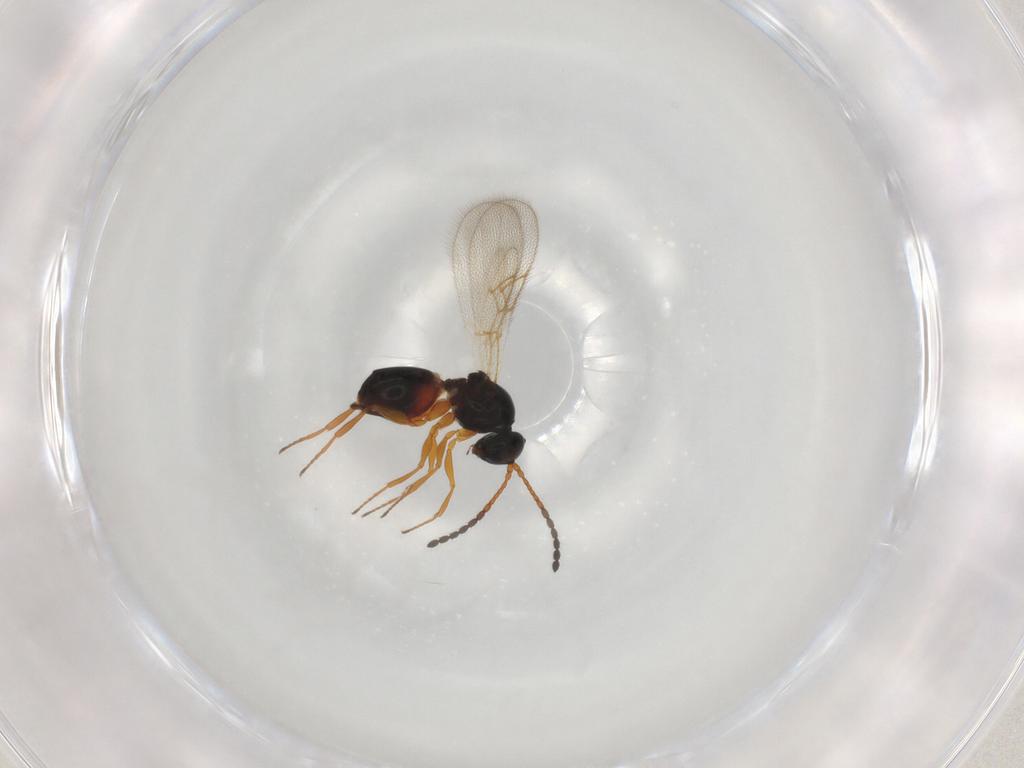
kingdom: Animalia
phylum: Arthropoda
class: Insecta
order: Hymenoptera
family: Figitidae
